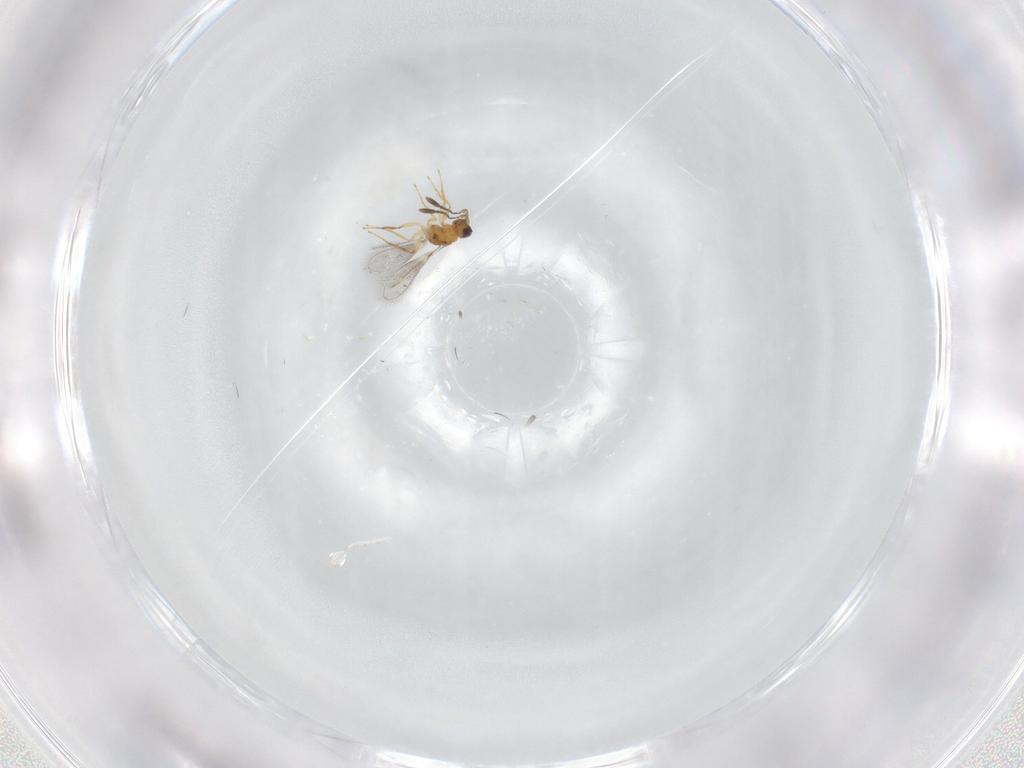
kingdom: Animalia
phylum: Arthropoda
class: Insecta
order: Hymenoptera
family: Mymaridae
